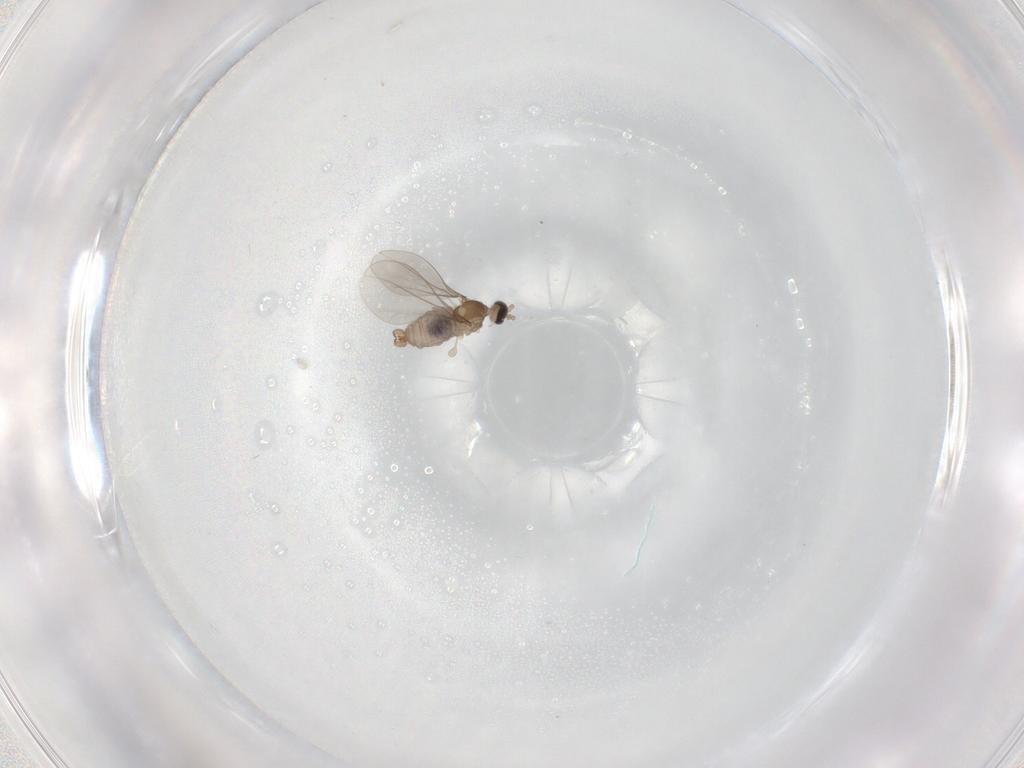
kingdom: Animalia
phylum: Arthropoda
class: Insecta
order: Diptera
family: Cecidomyiidae
